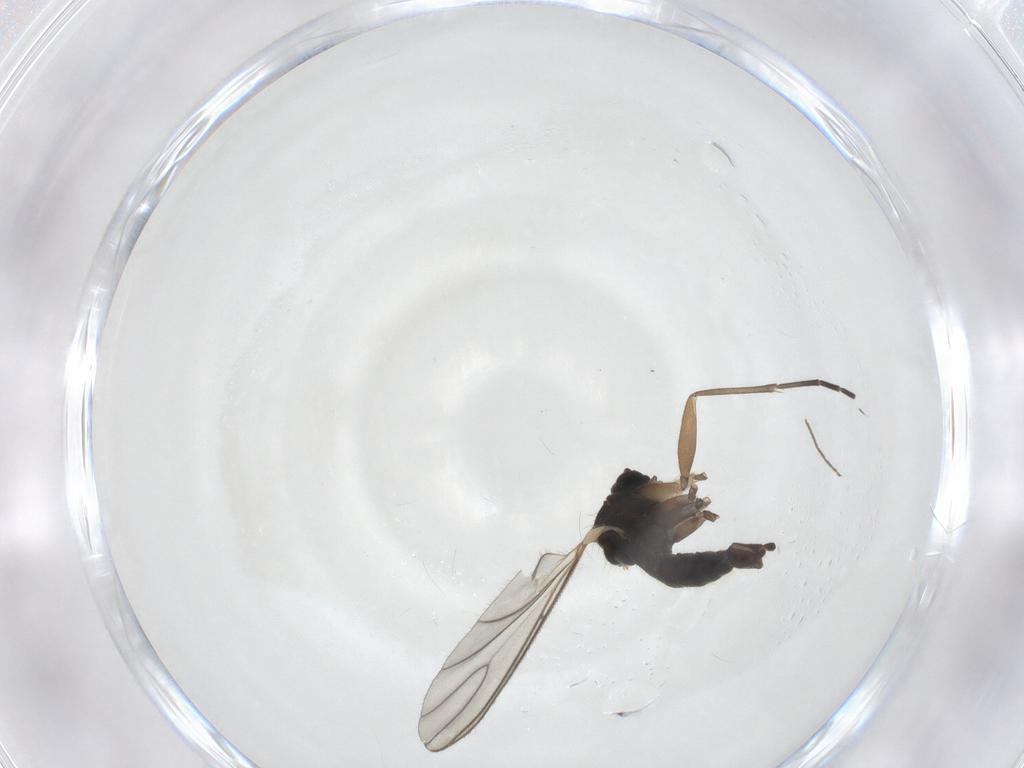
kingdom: Animalia
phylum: Arthropoda
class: Insecta
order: Diptera
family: Sciaridae
